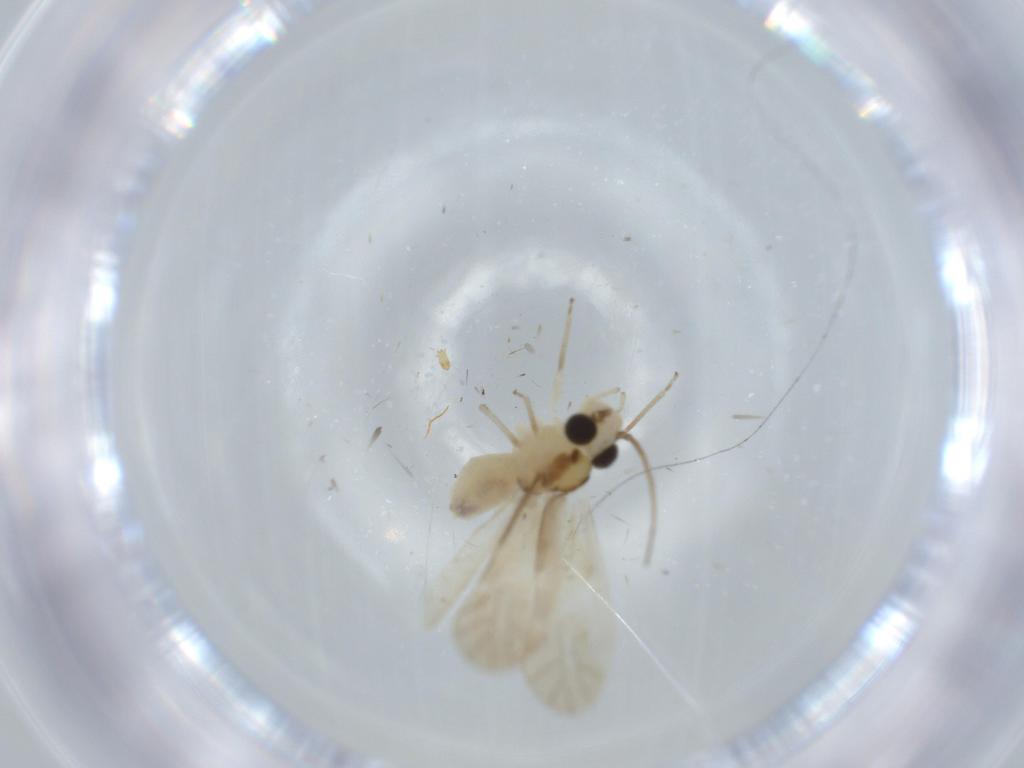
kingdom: Animalia
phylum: Arthropoda
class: Insecta
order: Psocodea
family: Caeciliusidae
